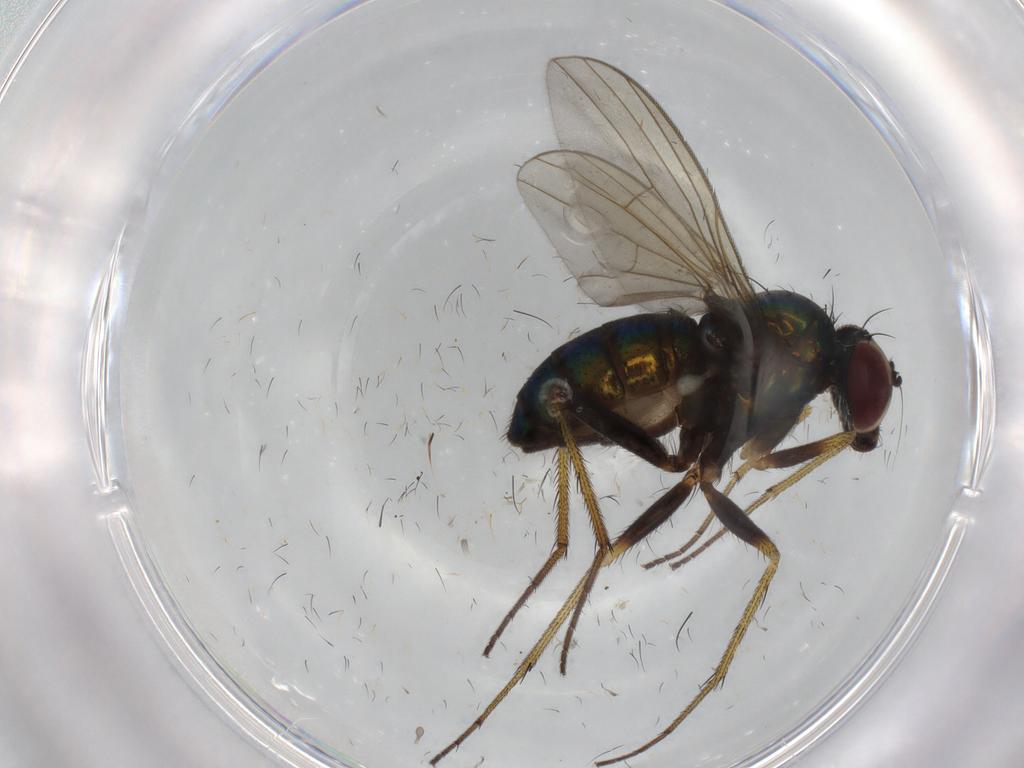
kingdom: Animalia
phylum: Arthropoda
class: Insecta
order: Diptera
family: Dolichopodidae
